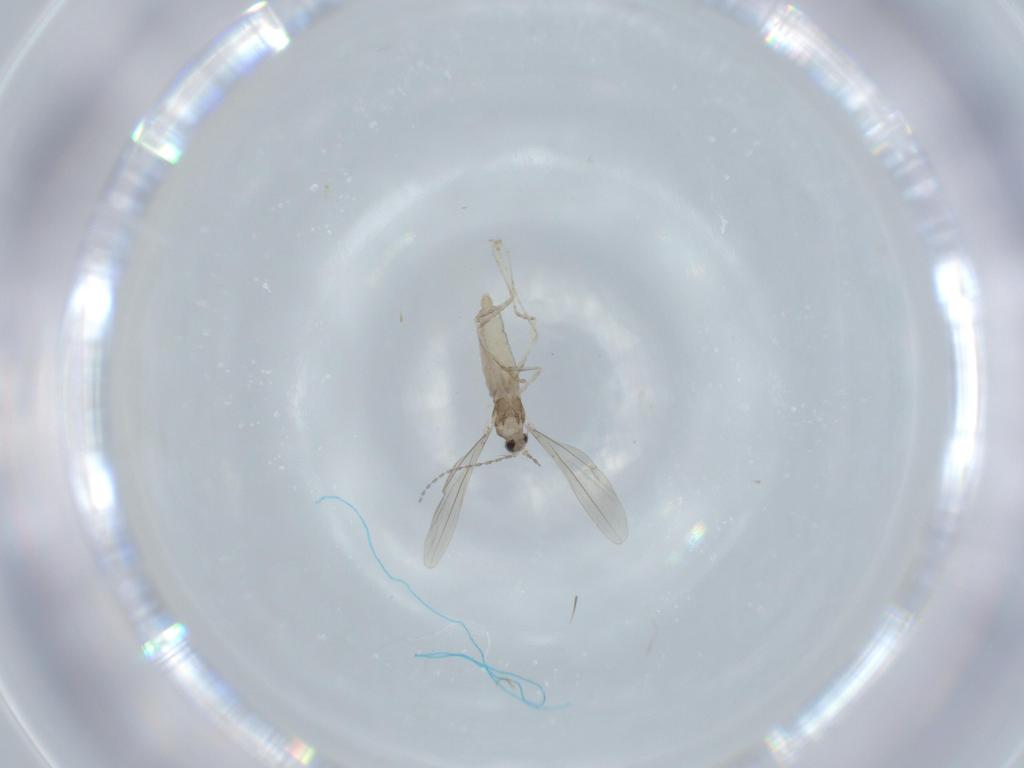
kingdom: Animalia
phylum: Arthropoda
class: Insecta
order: Diptera
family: Cecidomyiidae
